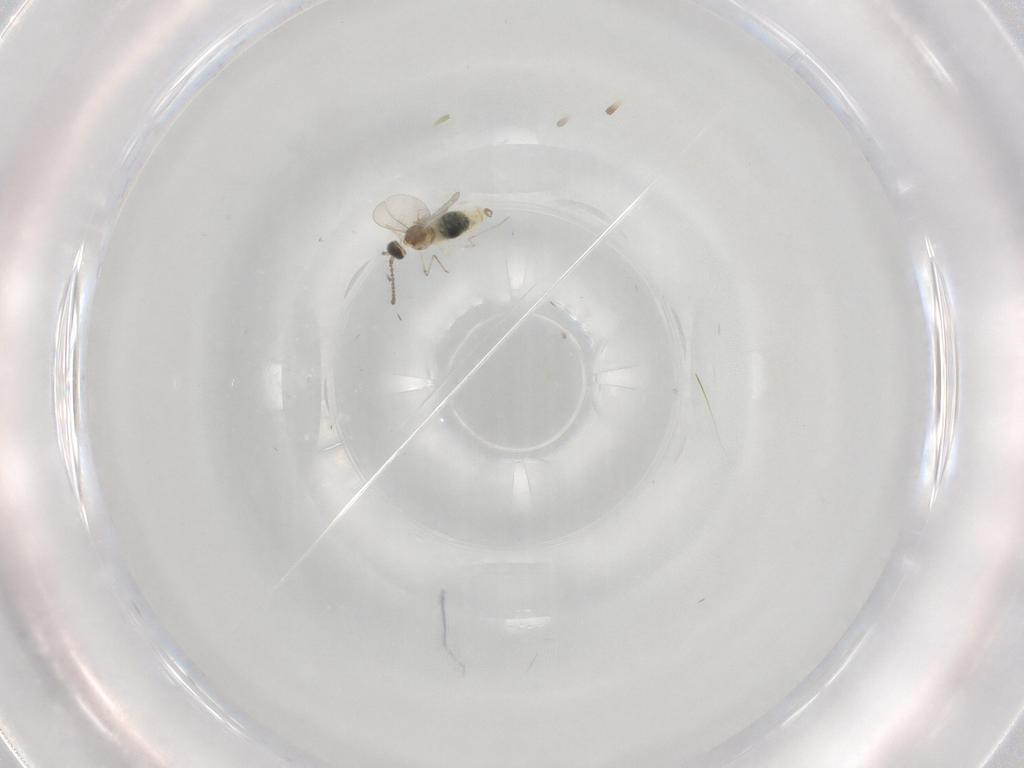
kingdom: Animalia
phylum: Arthropoda
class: Insecta
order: Diptera
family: Cecidomyiidae
